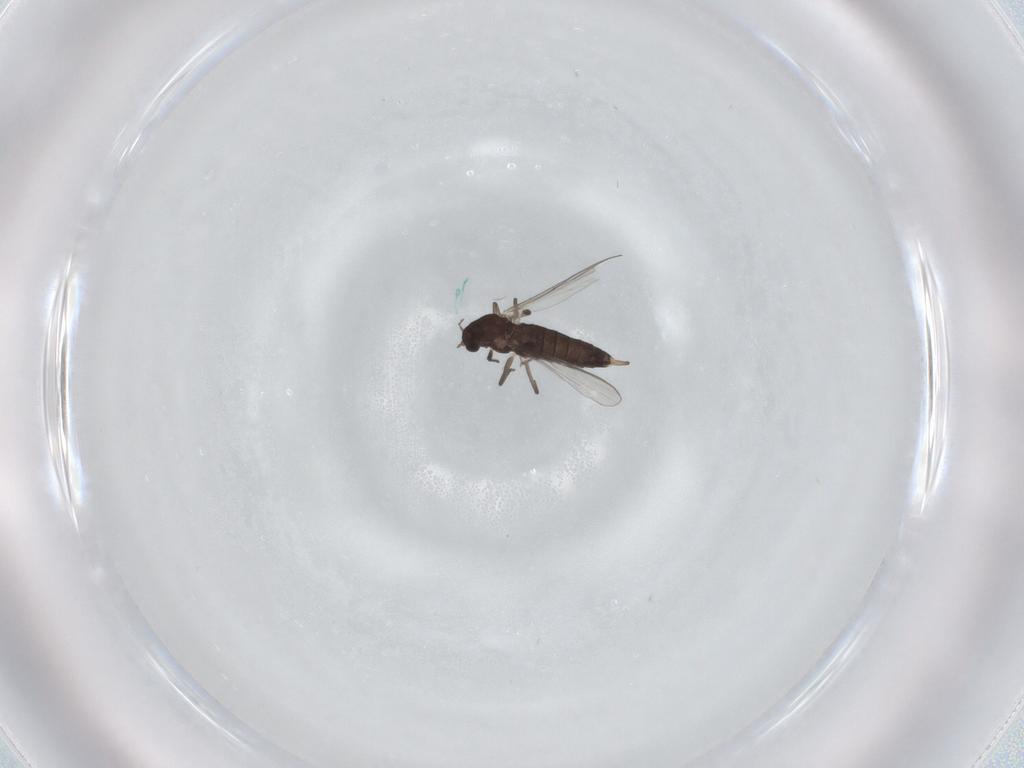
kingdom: Animalia
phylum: Arthropoda
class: Insecta
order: Diptera
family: Chironomidae
